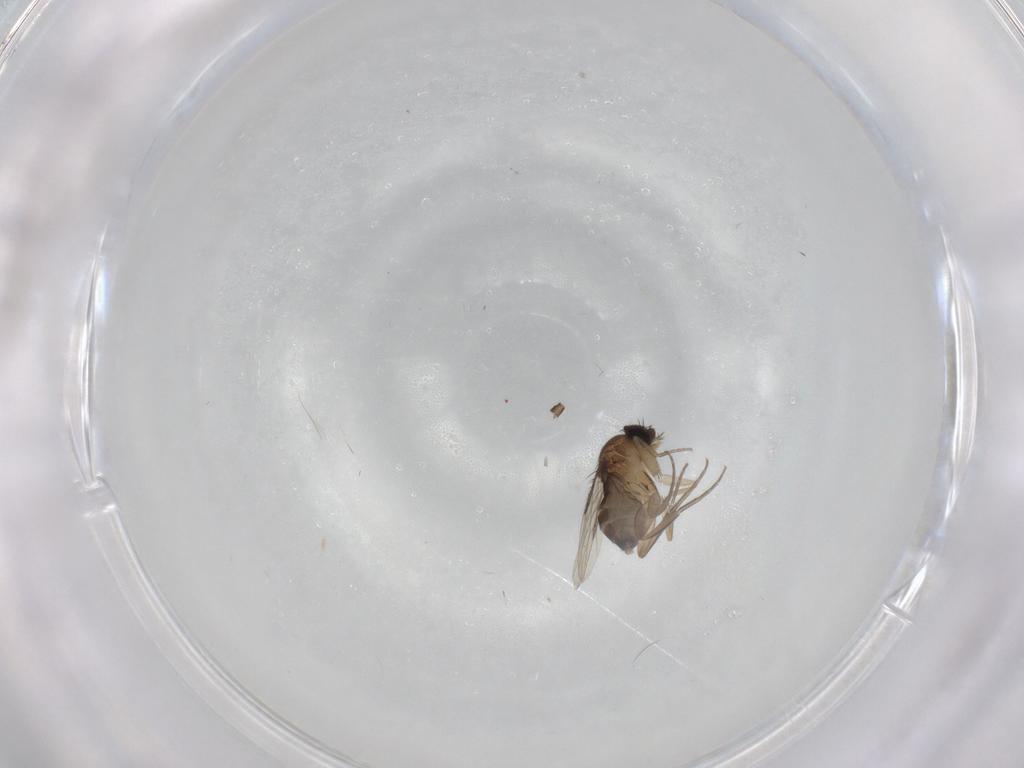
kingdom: Animalia
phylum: Arthropoda
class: Insecta
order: Diptera
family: Phoridae
